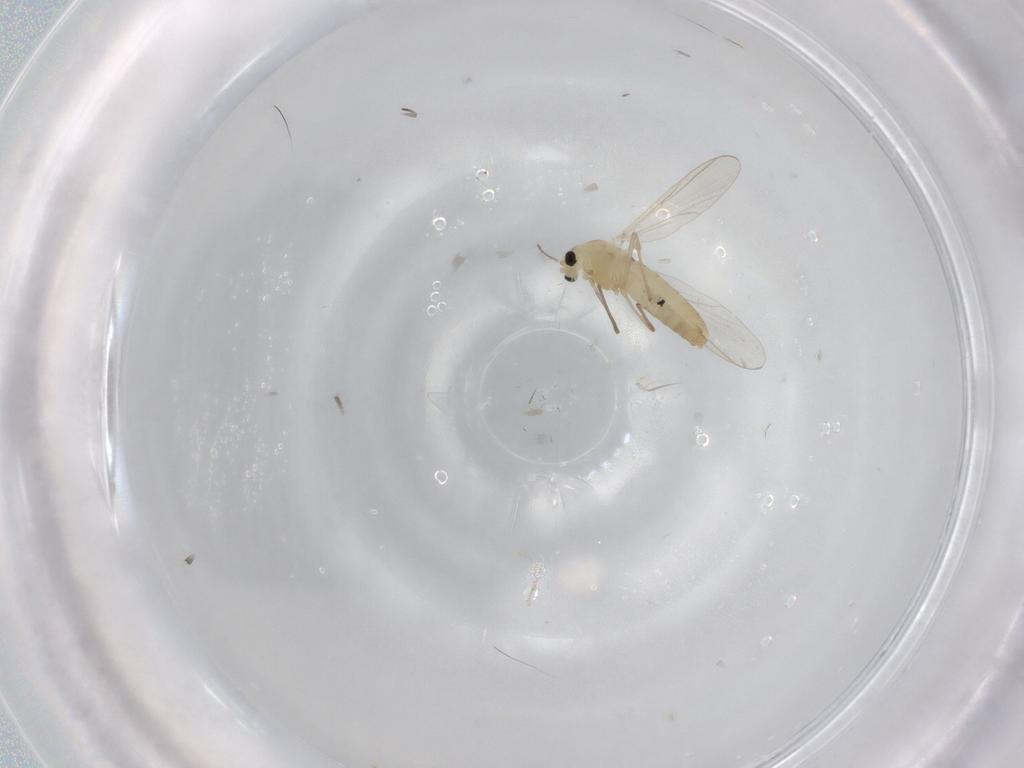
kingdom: Animalia
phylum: Arthropoda
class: Insecta
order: Diptera
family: Chironomidae
